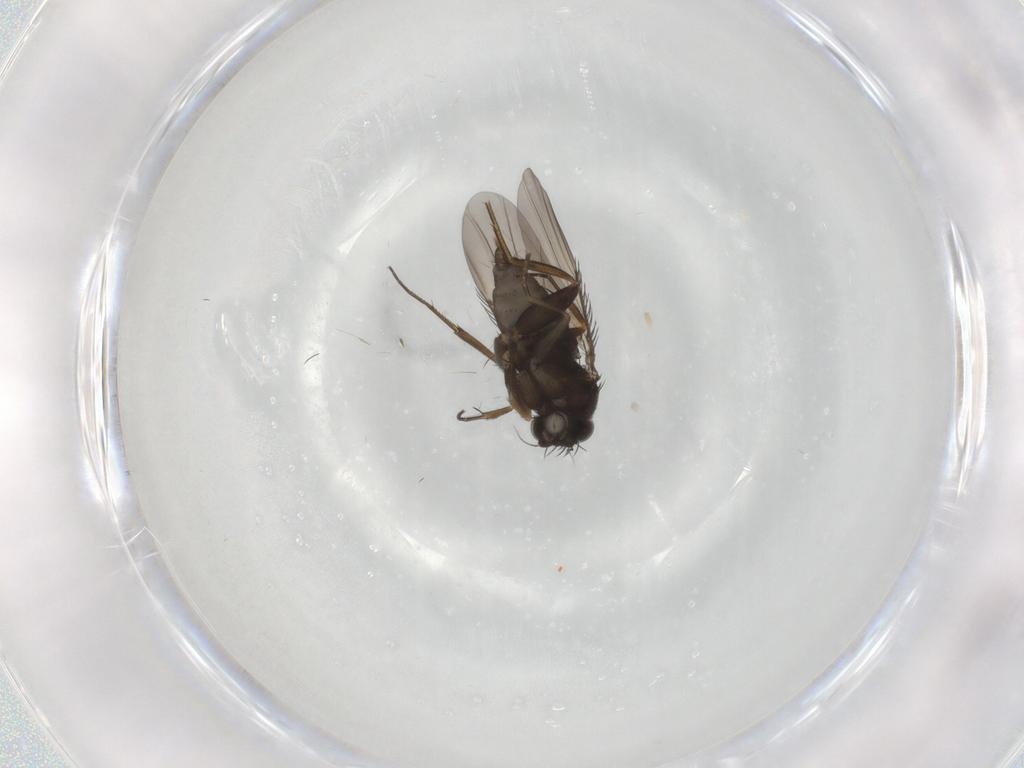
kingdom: Animalia
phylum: Arthropoda
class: Insecta
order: Diptera
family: Phoridae
